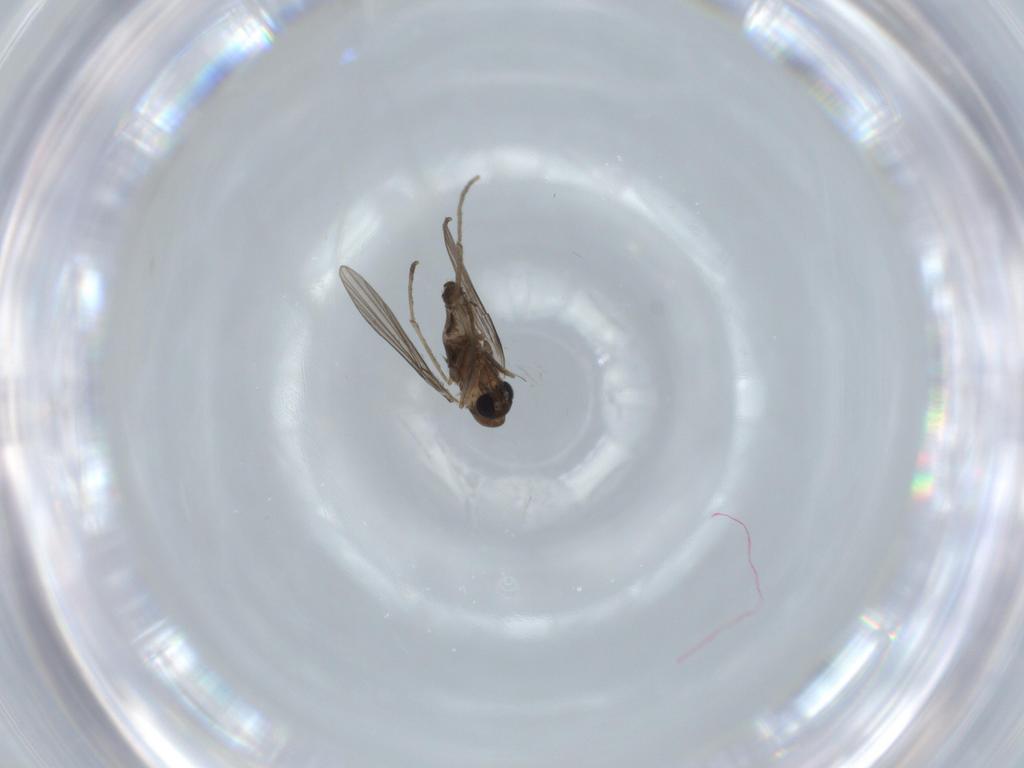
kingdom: Animalia
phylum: Arthropoda
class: Insecta
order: Diptera
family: Psychodidae
